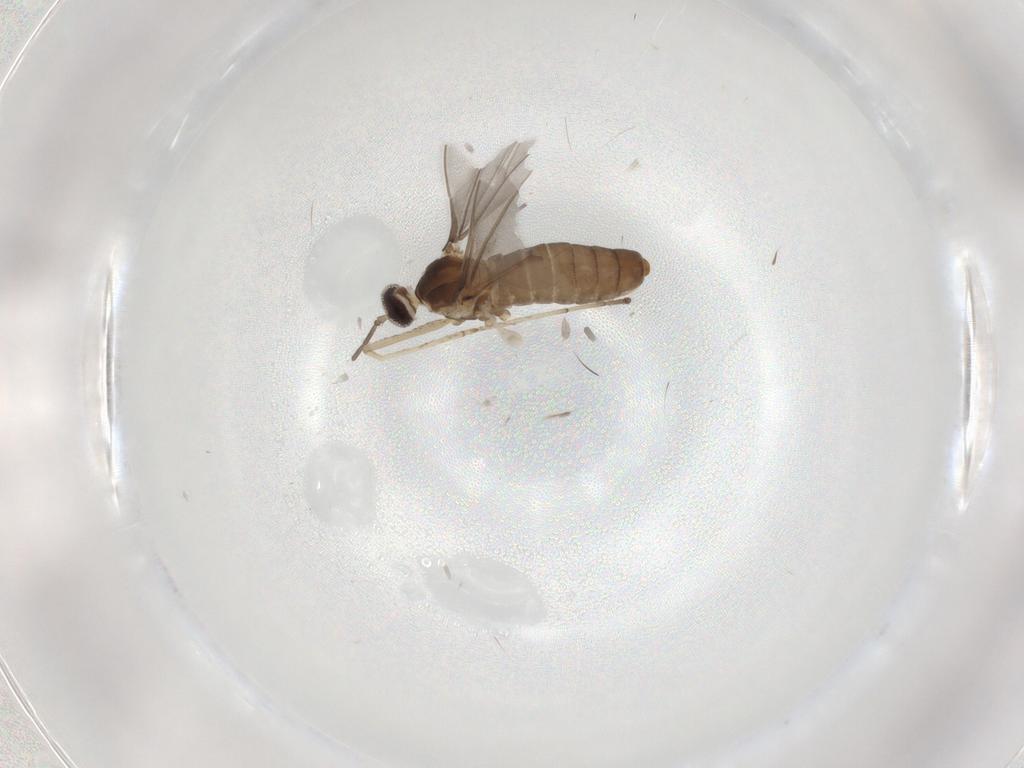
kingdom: Animalia
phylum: Arthropoda
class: Insecta
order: Diptera
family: Psychodidae
